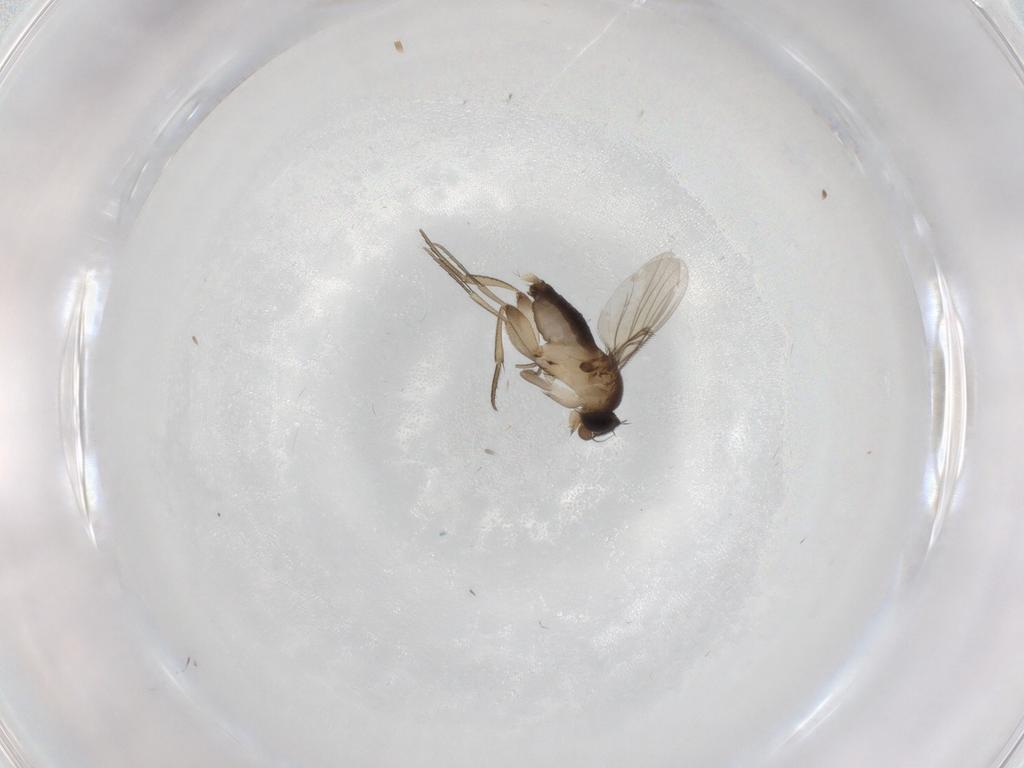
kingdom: Animalia
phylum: Arthropoda
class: Insecta
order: Diptera
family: Phoridae
